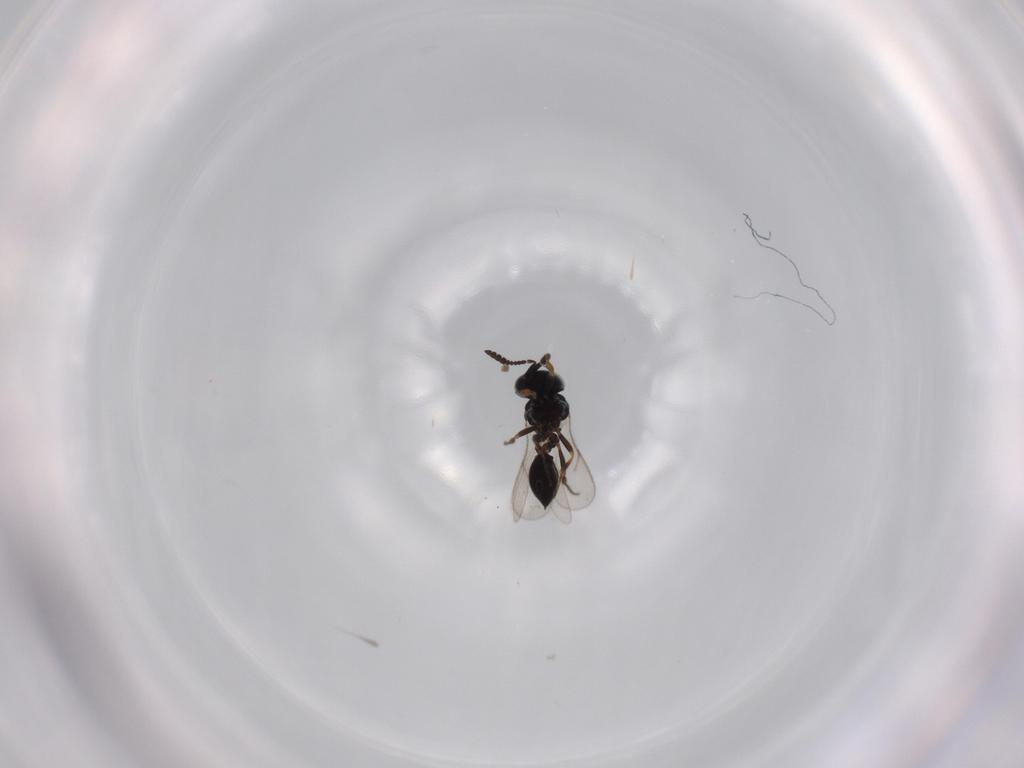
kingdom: Animalia
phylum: Arthropoda
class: Insecta
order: Hymenoptera
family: Scelionidae
